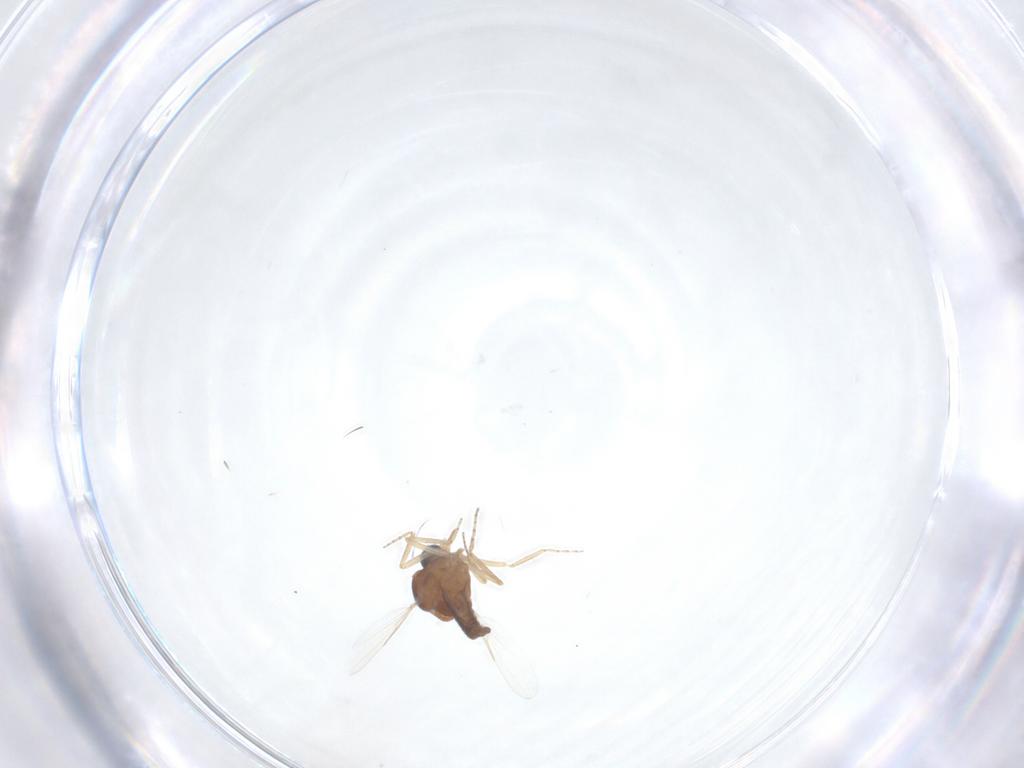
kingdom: Animalia
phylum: Arthropoda
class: Insecta
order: Diptera
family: Ceratopogonidae
